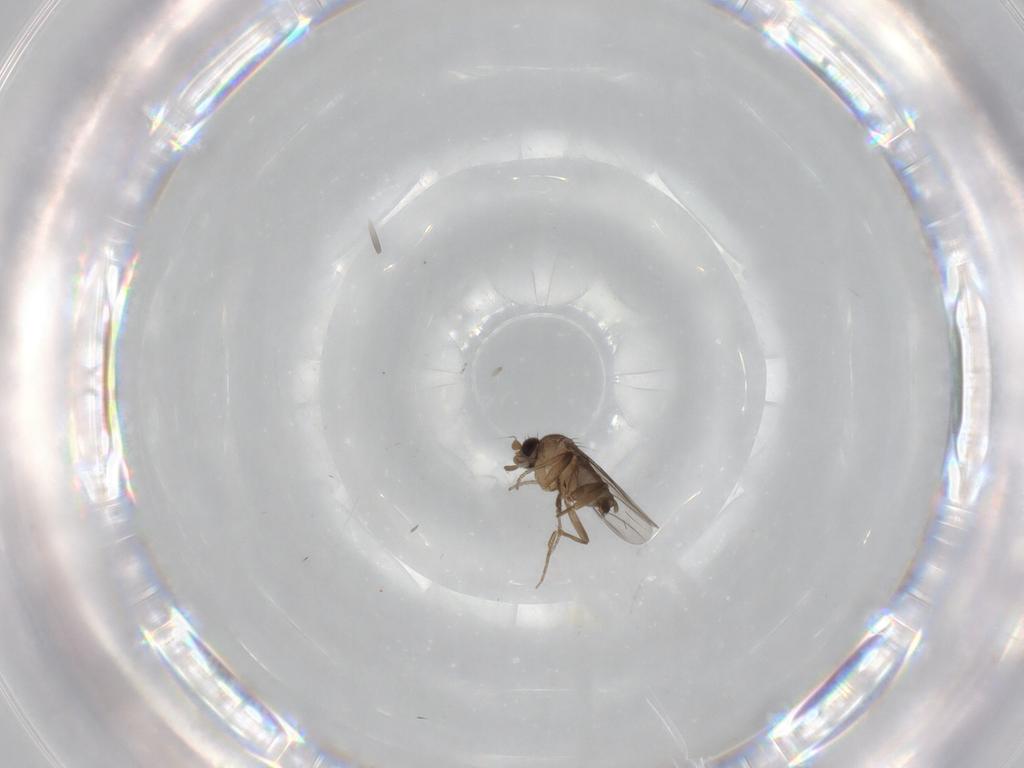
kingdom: Animalia
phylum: Arthropoda
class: Insecta
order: Diptera
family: Phoridae
